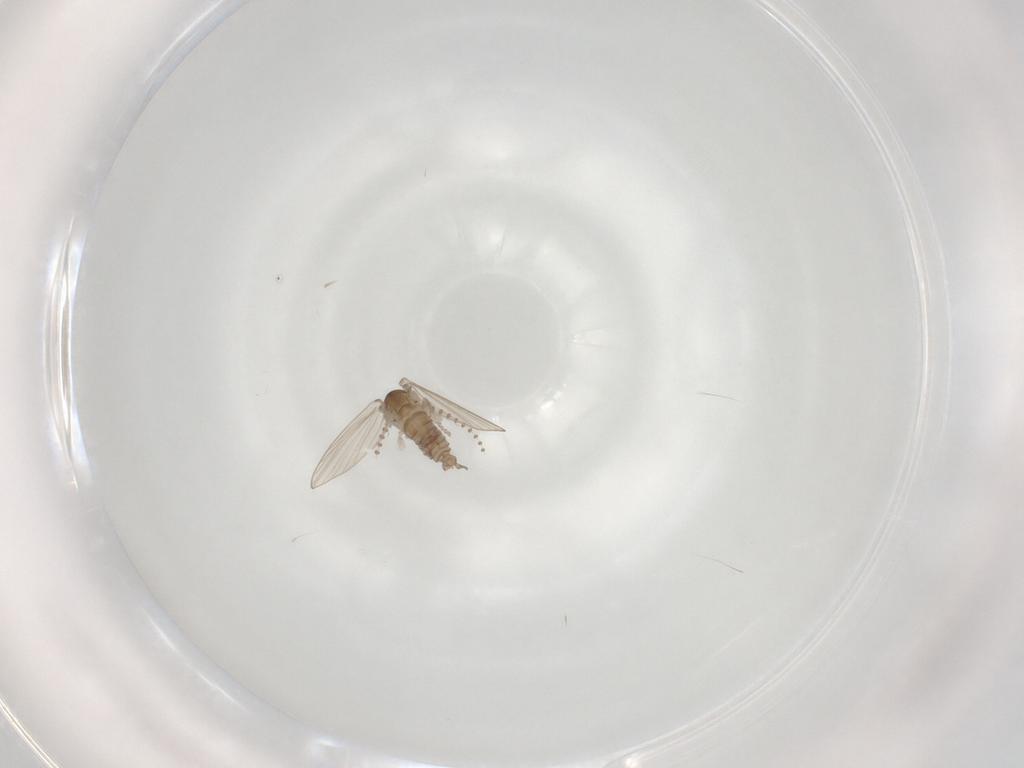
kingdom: Animalia
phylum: Arthropoda
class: Insecta
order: Diptera
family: Psychodidae
